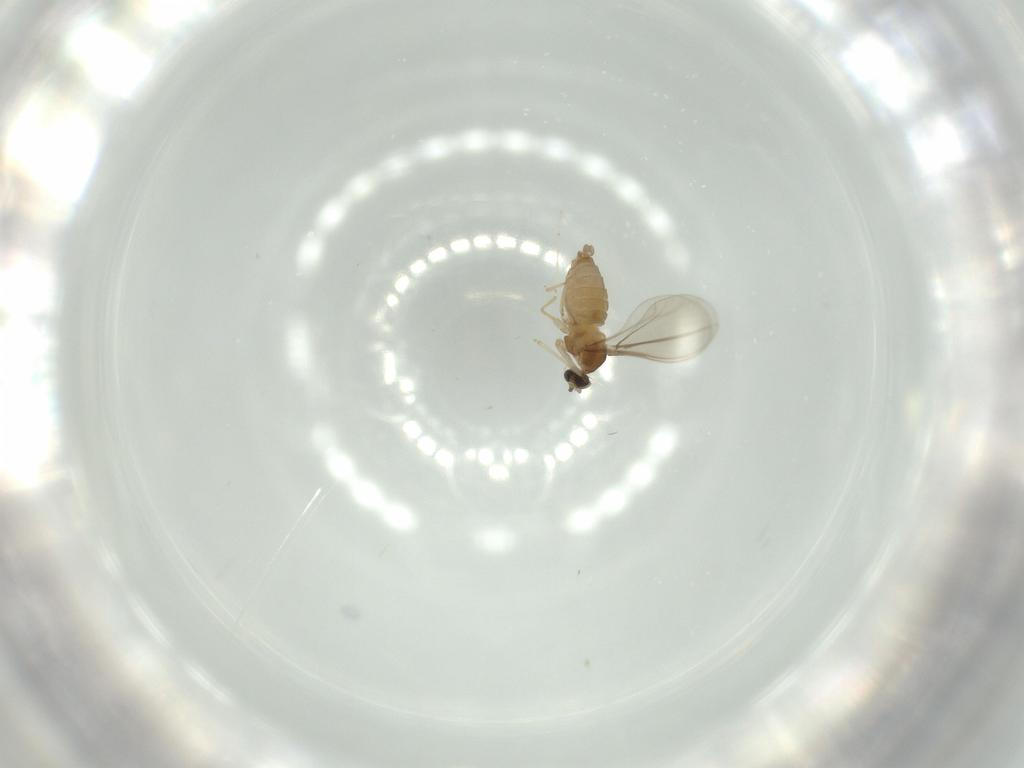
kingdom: Animalia
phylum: Arthropoda
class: Insecta
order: Diptera
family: Cecidomyiidae
